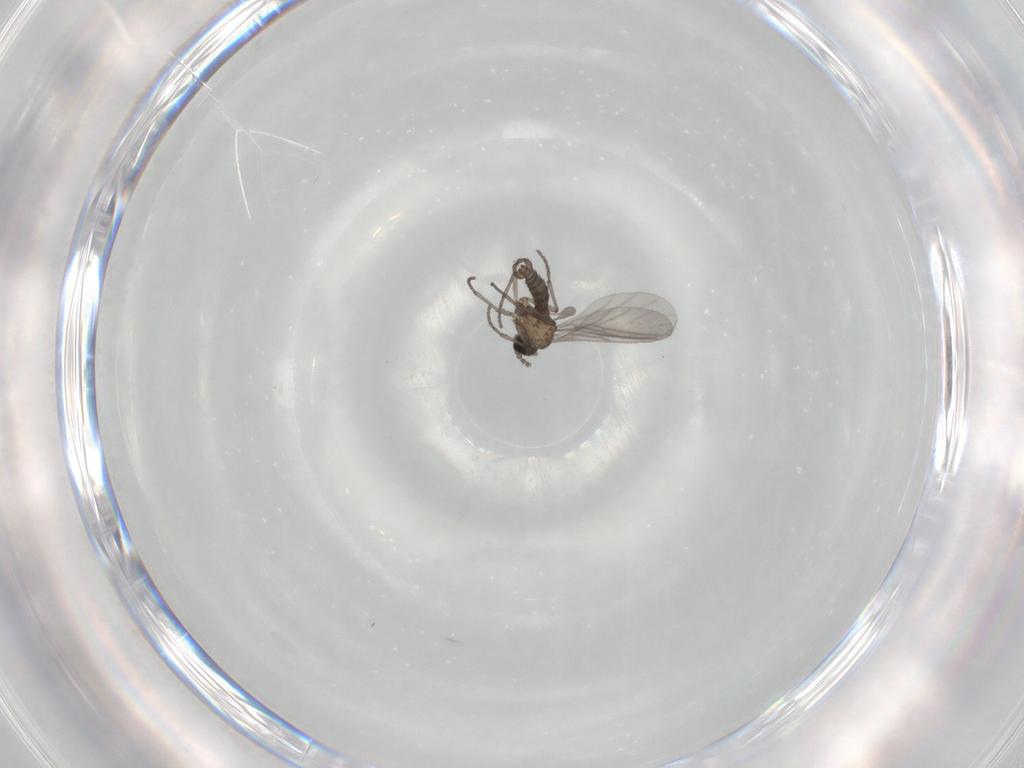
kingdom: Animalia
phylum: Arthropoda
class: Insecta
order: Diptera
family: Sciaridae
